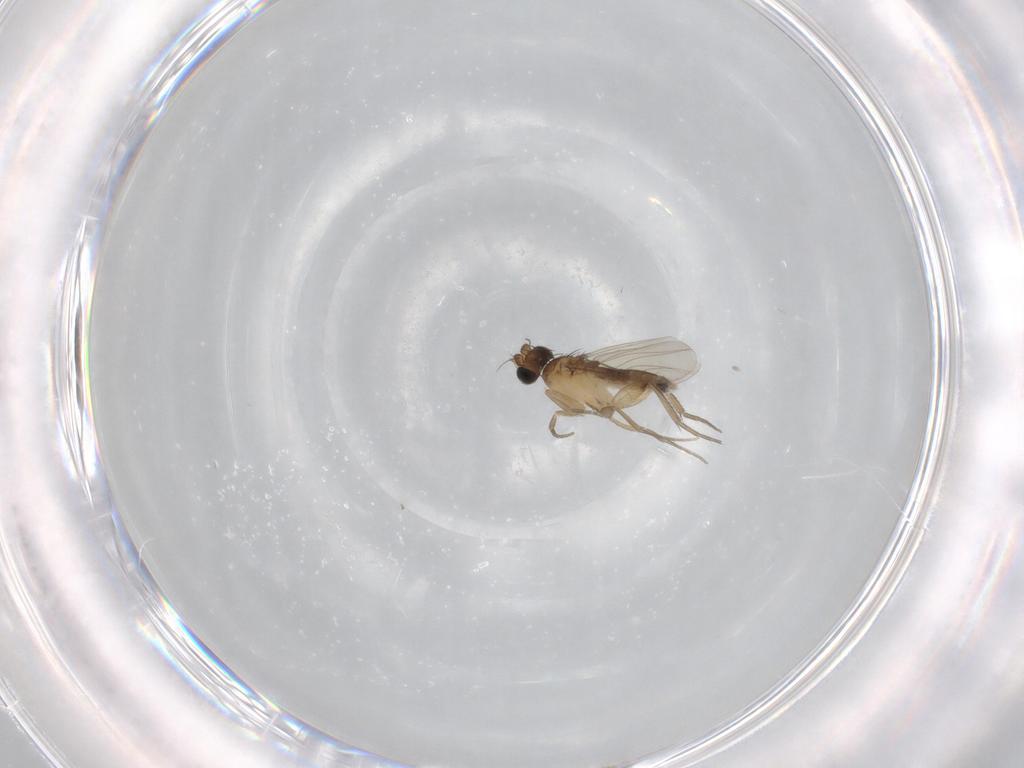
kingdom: Animalia
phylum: Arthropoda
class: Insecta
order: Diptera
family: Phoridae
